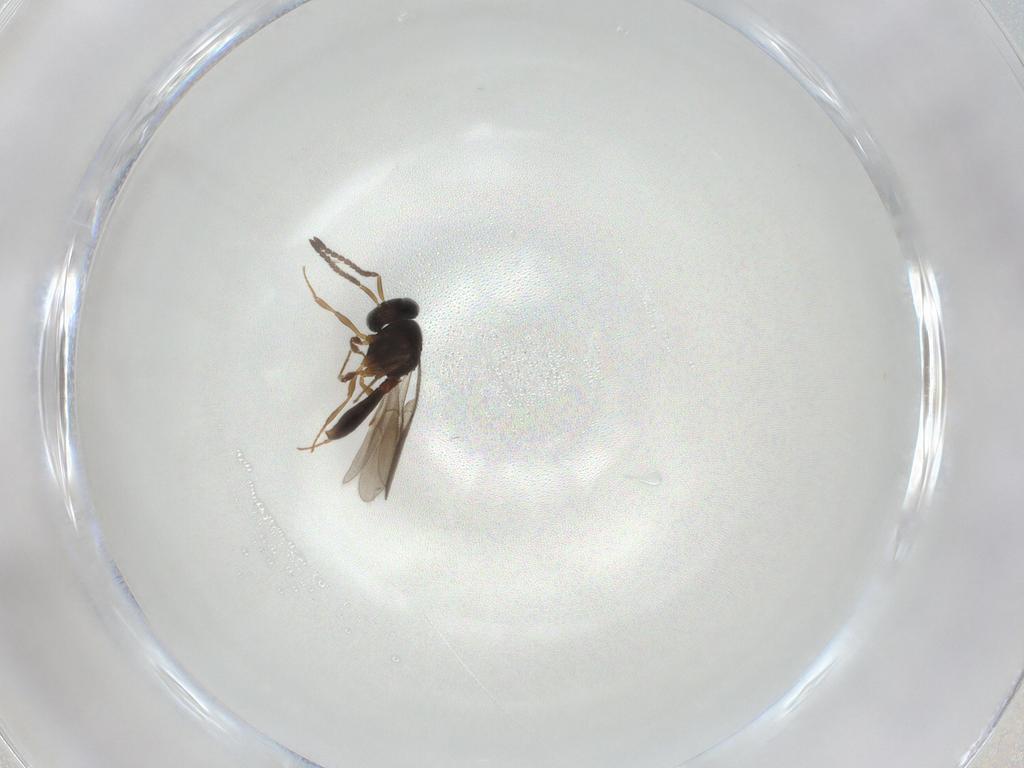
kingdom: Animalia
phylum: Arthropoda
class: Insecta
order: Hymenoptera
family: Scelionidae
